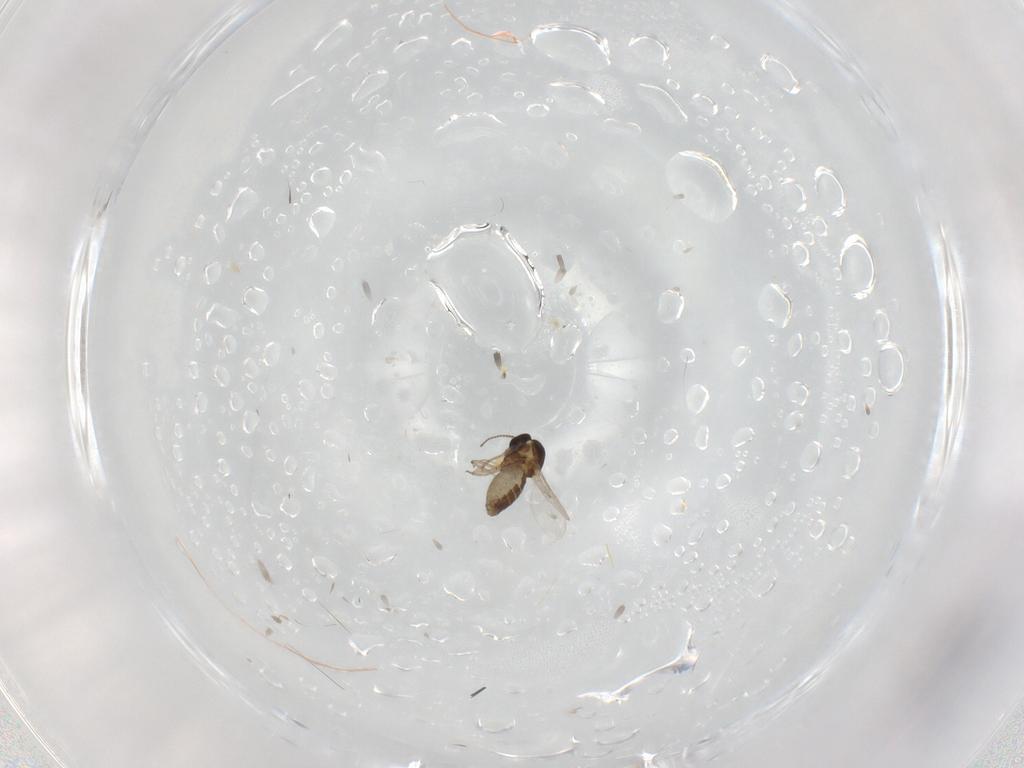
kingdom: Animalia
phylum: Arthropoda
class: Insecta
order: Diptera
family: Ceratopogonidae
